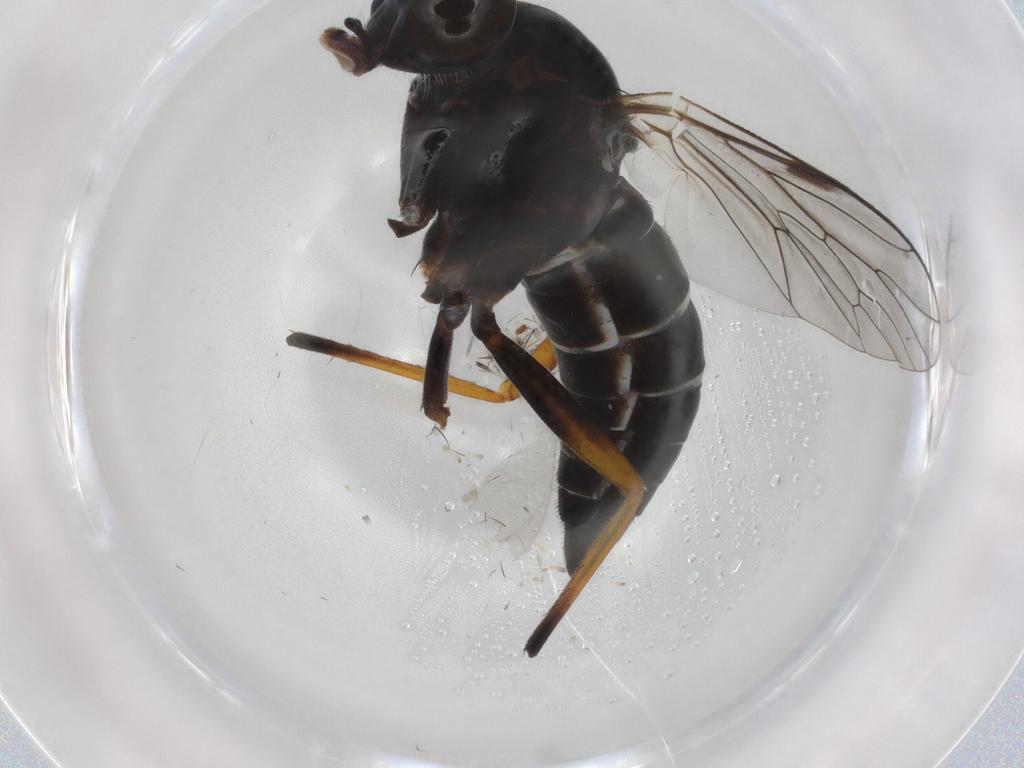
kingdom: Animalia
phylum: Arthropoda
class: Insecta
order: Diptera
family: Therevidae
